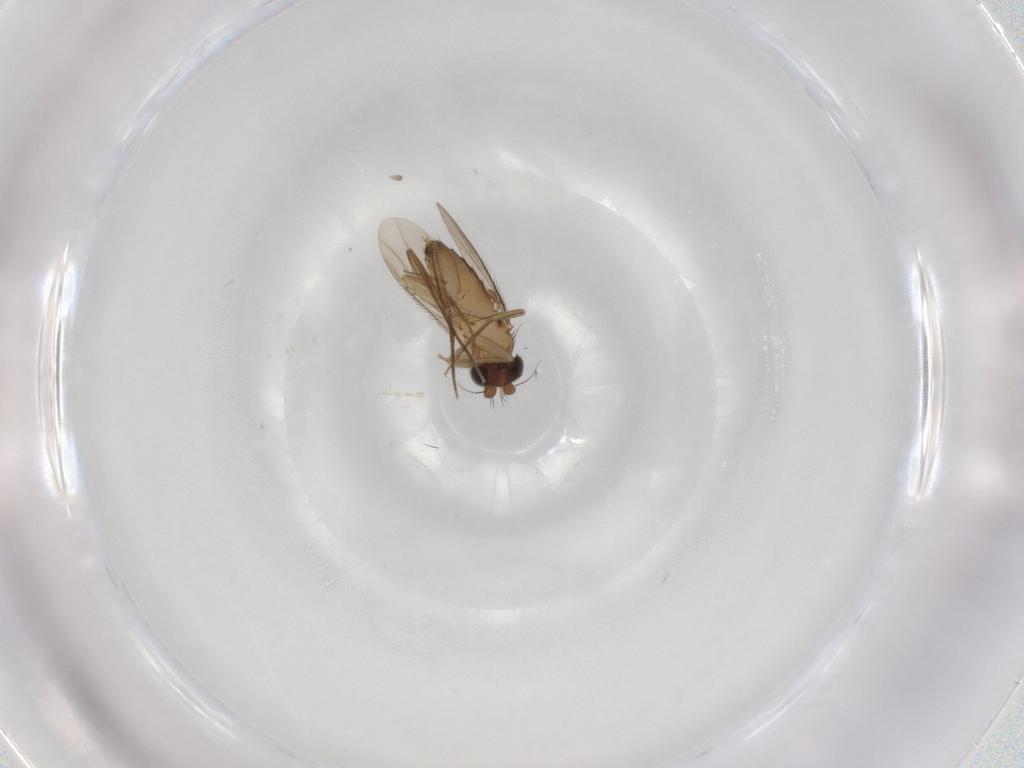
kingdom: Animalia
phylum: Arthropoda
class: Insecta
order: Diptera
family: Phoridae
